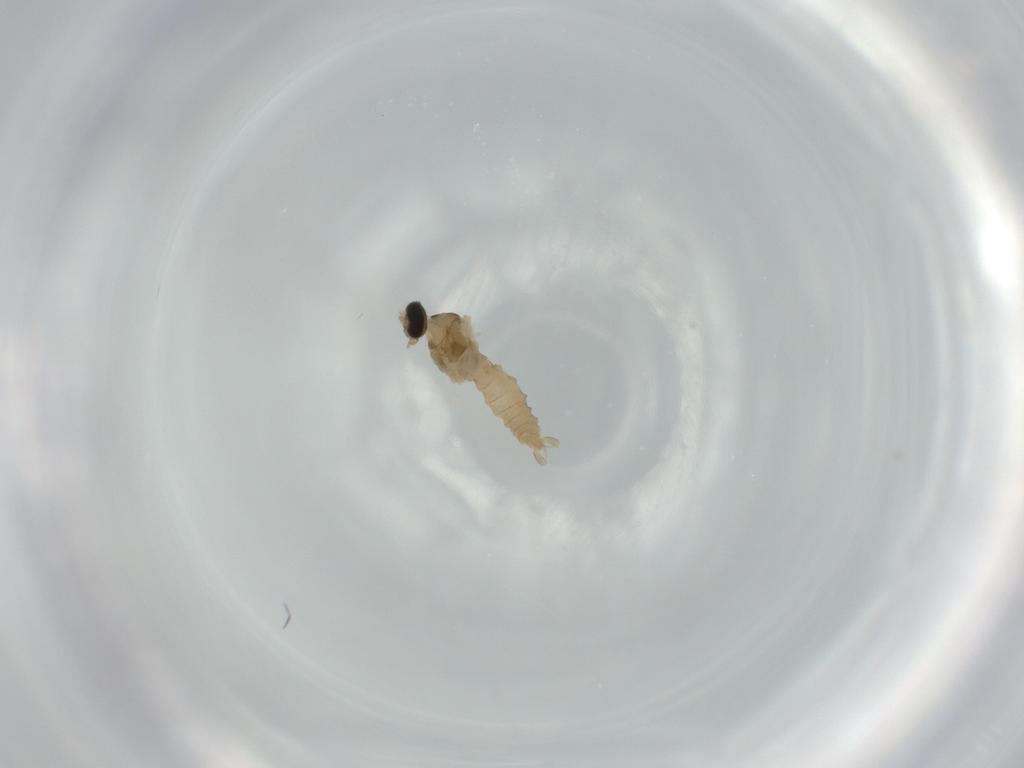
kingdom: Animalia
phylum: Arthropoda
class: Insecta
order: Diptera
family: Cecidomyiidae
